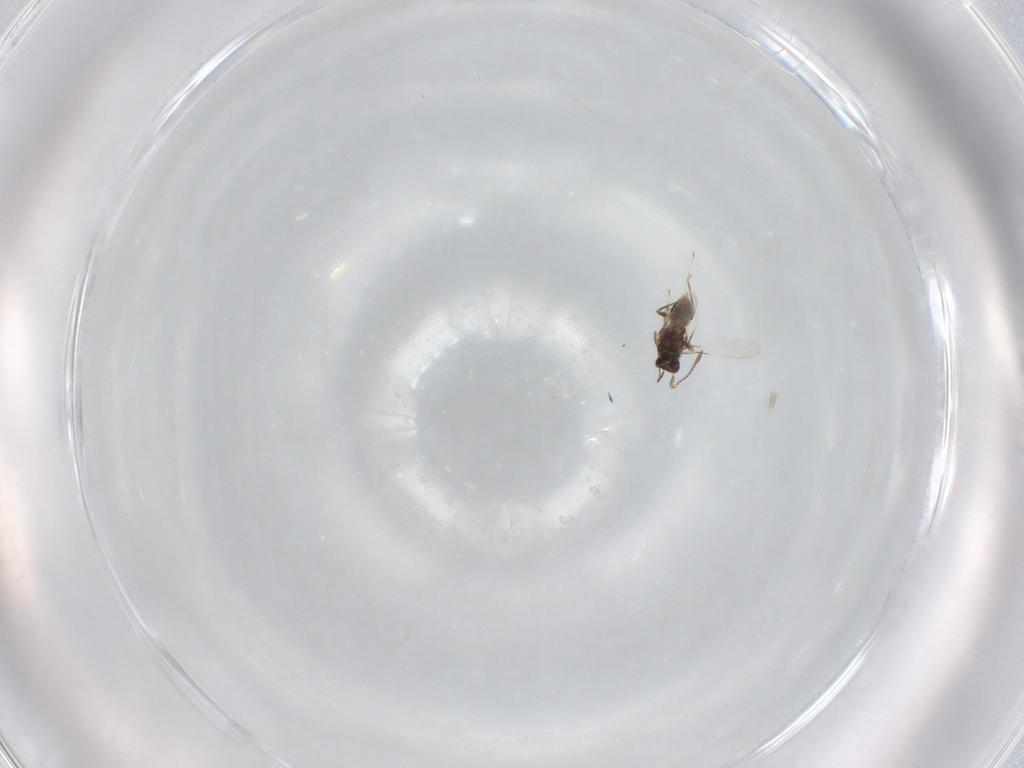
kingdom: Animalia
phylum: Arthropoda
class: Insecta
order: Hymenoptera
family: Mymaridae
